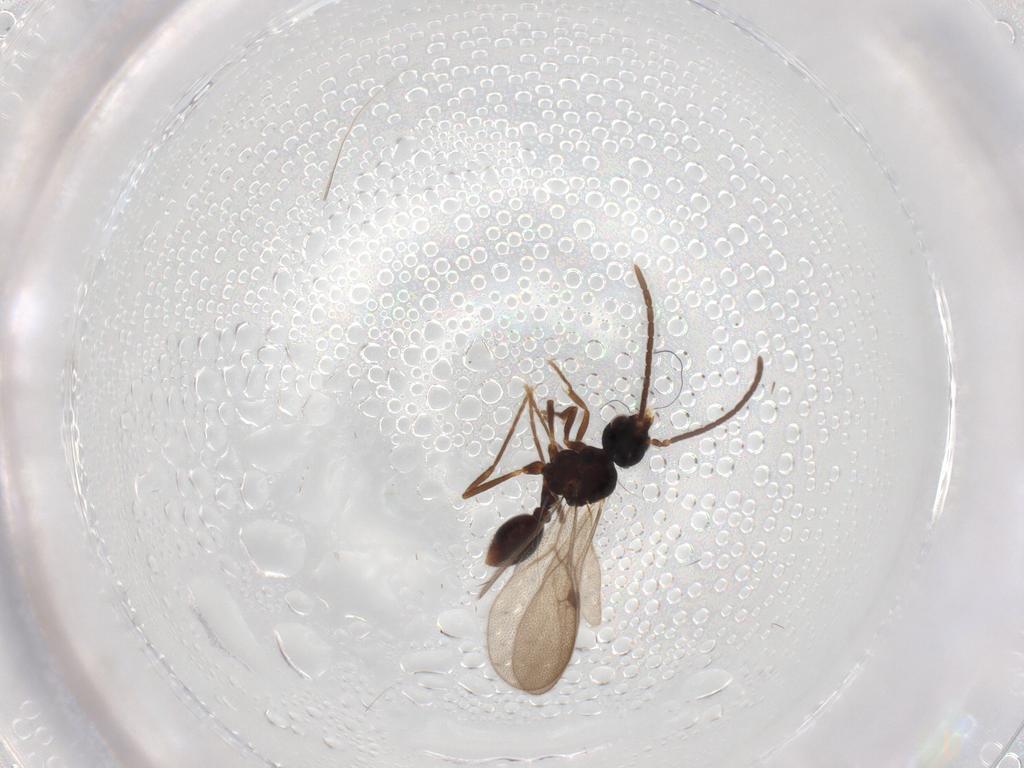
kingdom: Animalia
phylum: Arthropoda
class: Insecta
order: Hymenoptera
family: Formicidae
